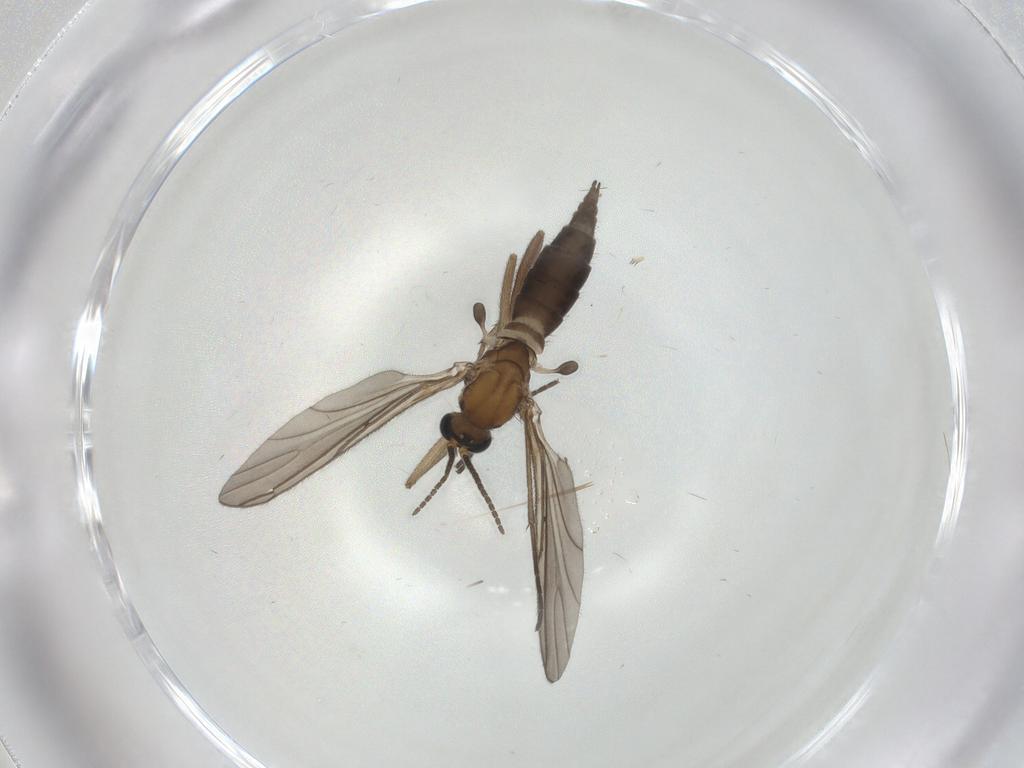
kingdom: Animalia
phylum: Arthropoda
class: Insecta
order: Diptera
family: Sciaridae
